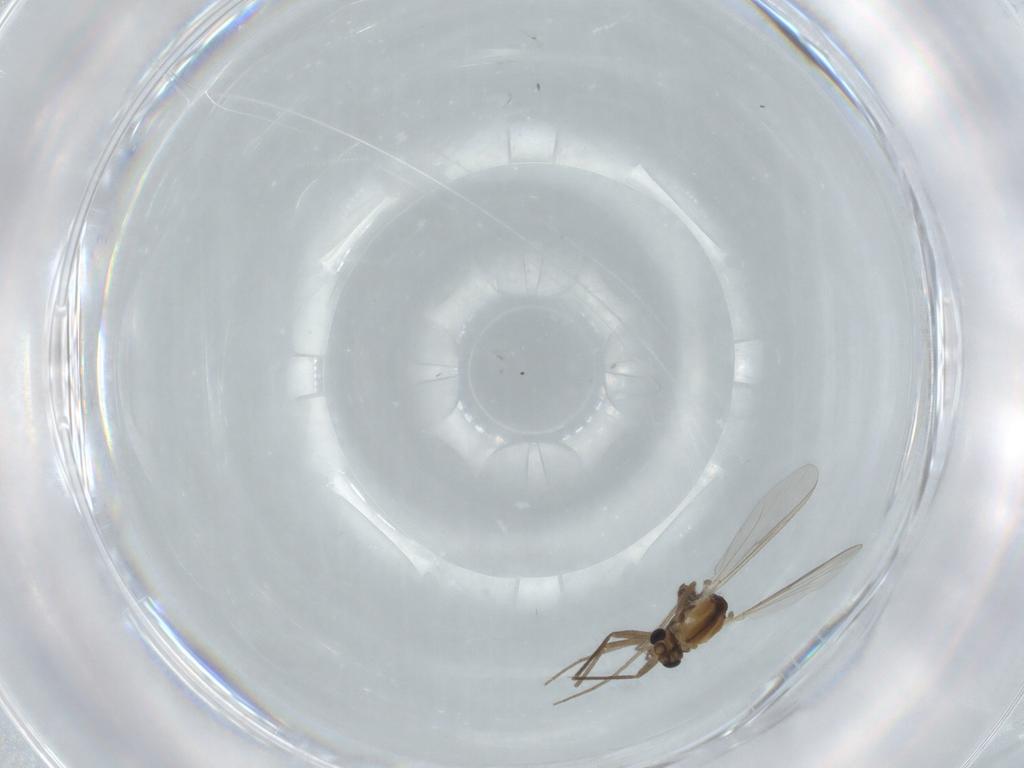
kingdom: Animalia
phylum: Arthropoda
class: Insecta
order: Diptera
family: Chironomidae
